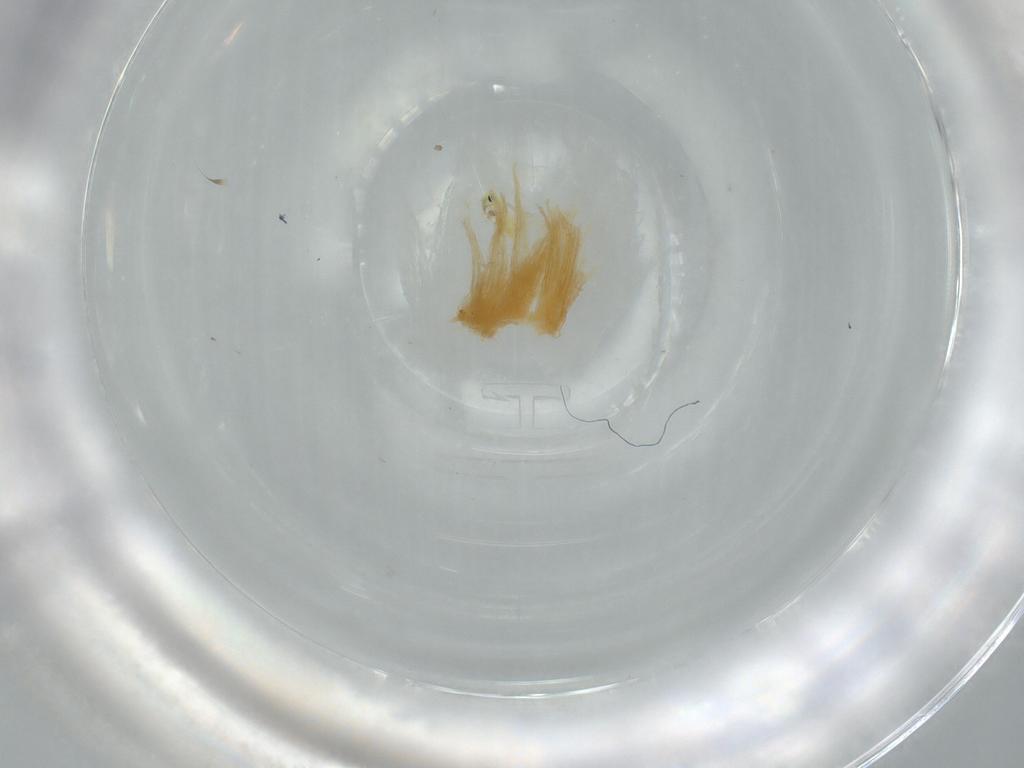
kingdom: Animalia
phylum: Arthropoda
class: Insecta
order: Hemiptera
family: Cercopidae
